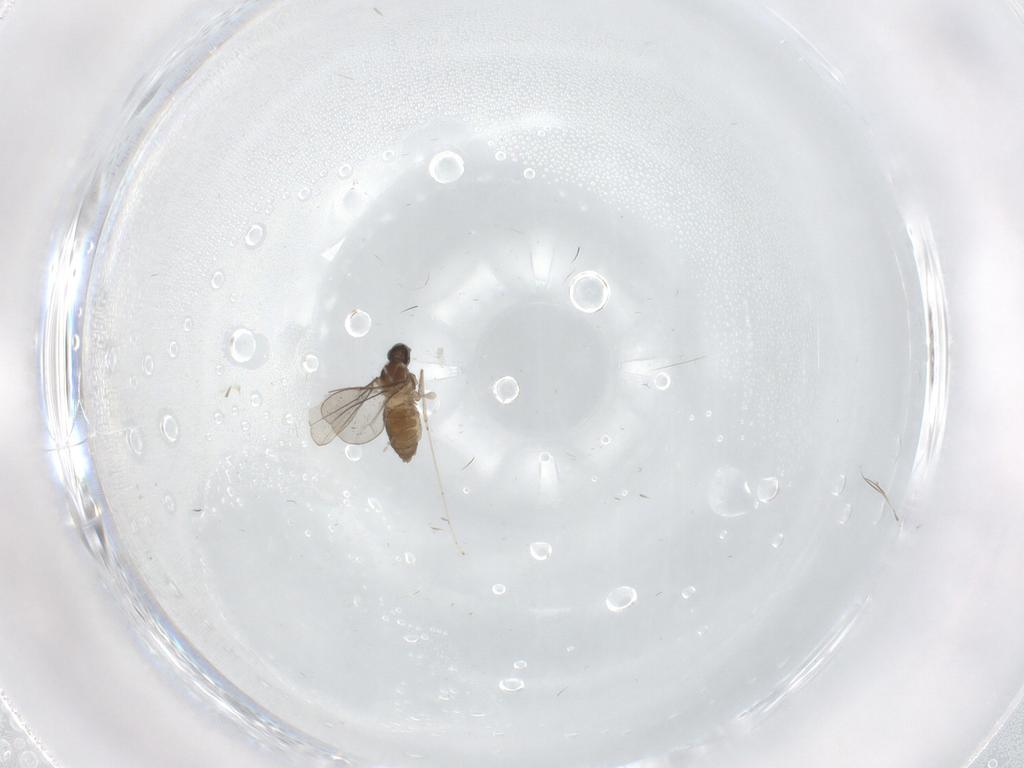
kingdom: Animalia
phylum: Arthropoda
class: Insecta
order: Diptera
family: Cecidomyiidae
